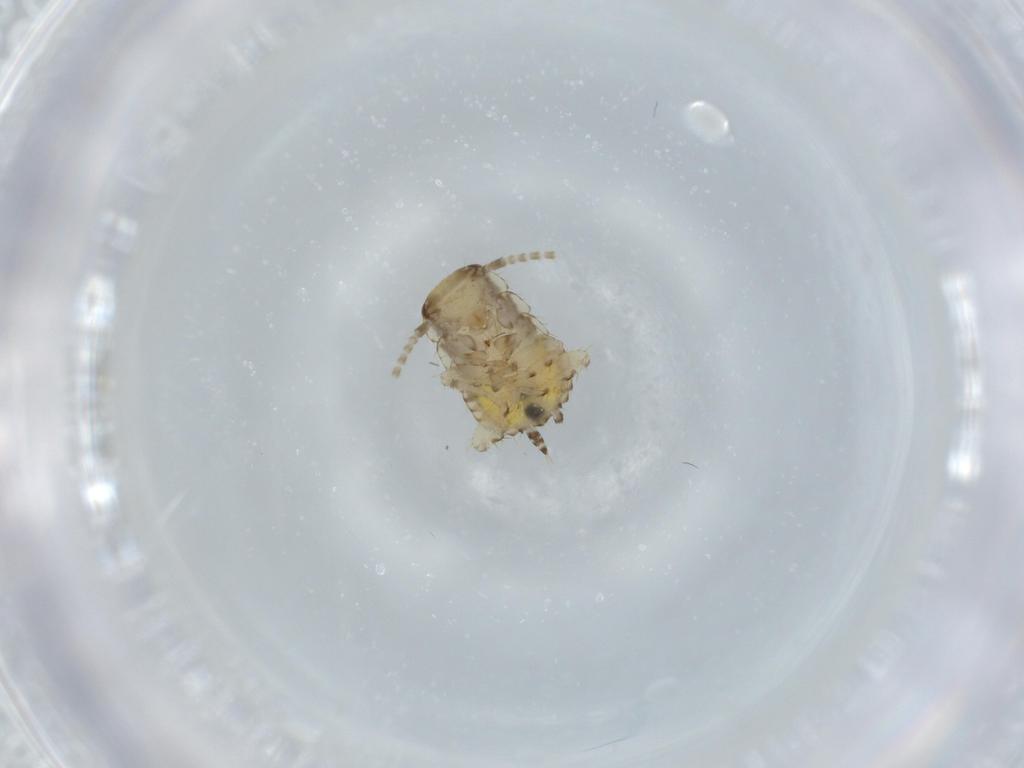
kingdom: Animalia
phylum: Arthropoda
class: Insecta
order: Blattodea
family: Ectobiidae
